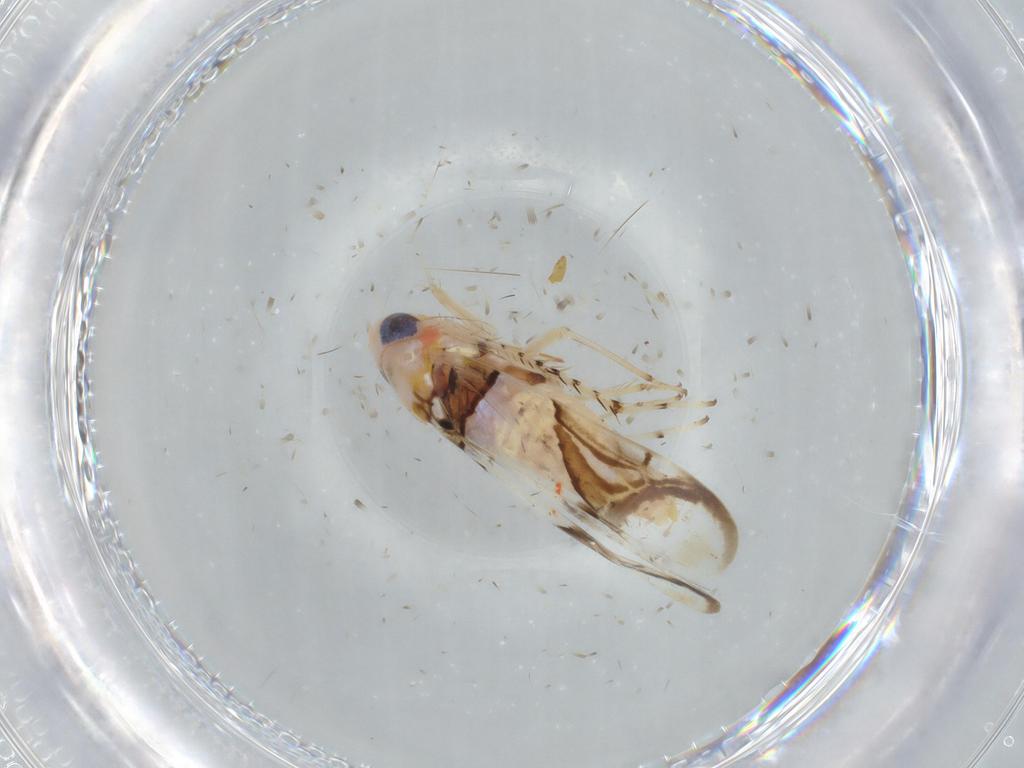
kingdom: Animalia
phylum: Arthropoda
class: Insecta
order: Hemiptera
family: Cicadellidae
